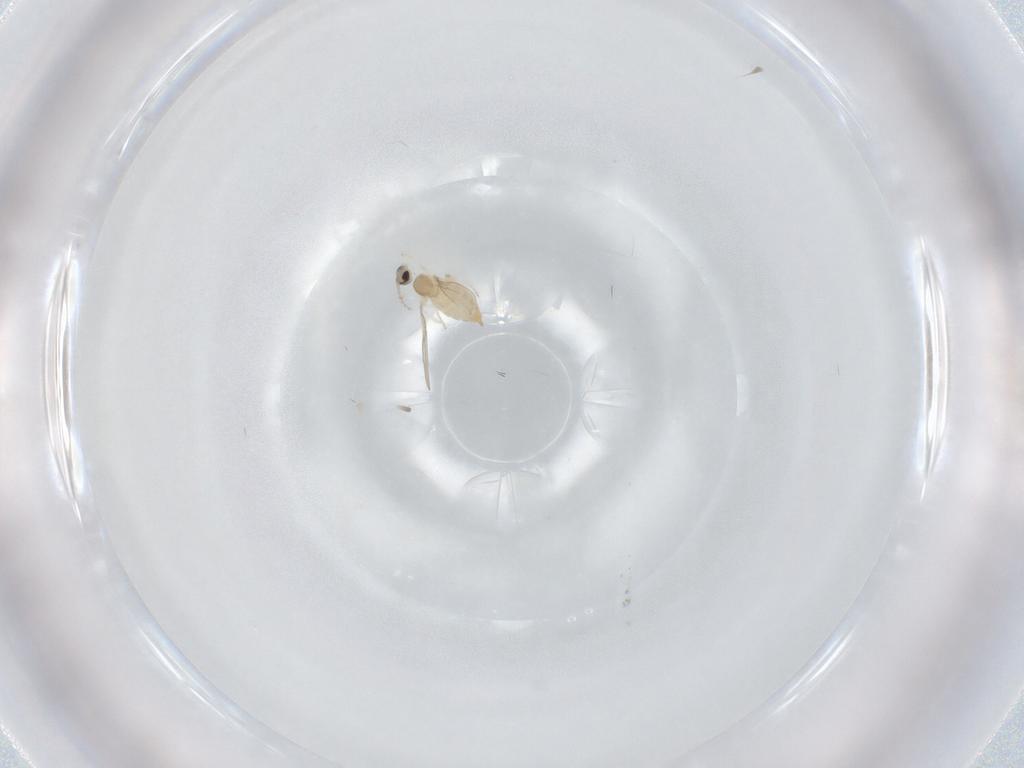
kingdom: Animalia
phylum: Arthropoda
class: Insecta
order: Diptera
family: Cecidomyiidae
